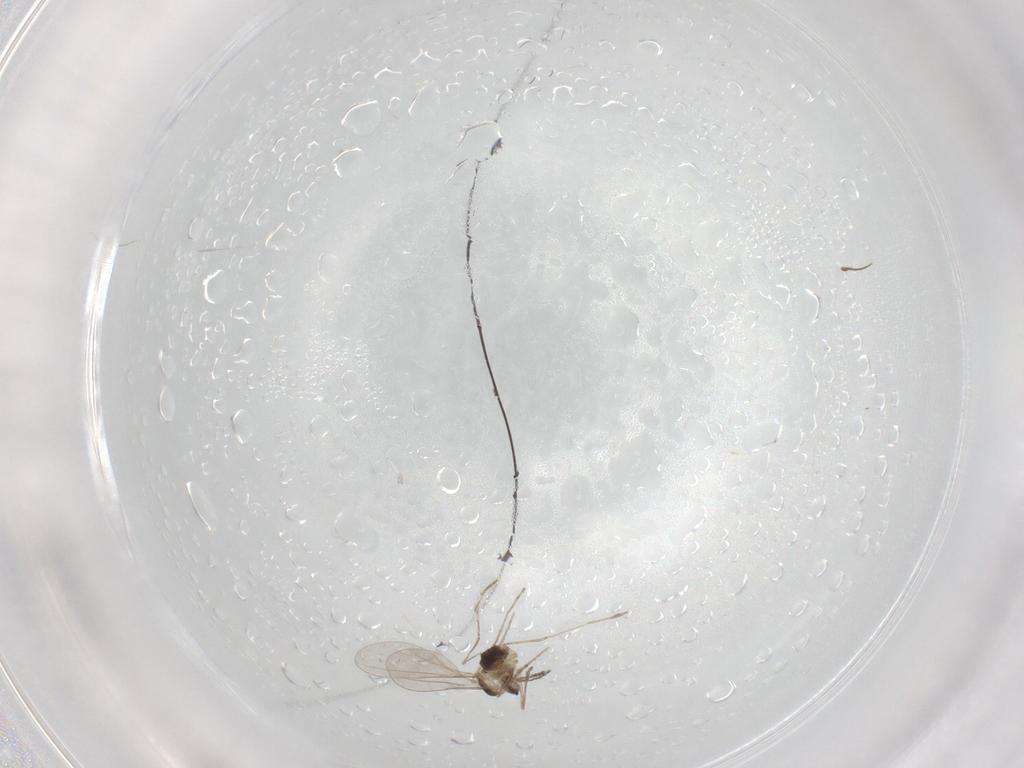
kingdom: Animalia
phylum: Arthropoda
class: Insecta
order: Diptera
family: Cecidomyiidae
